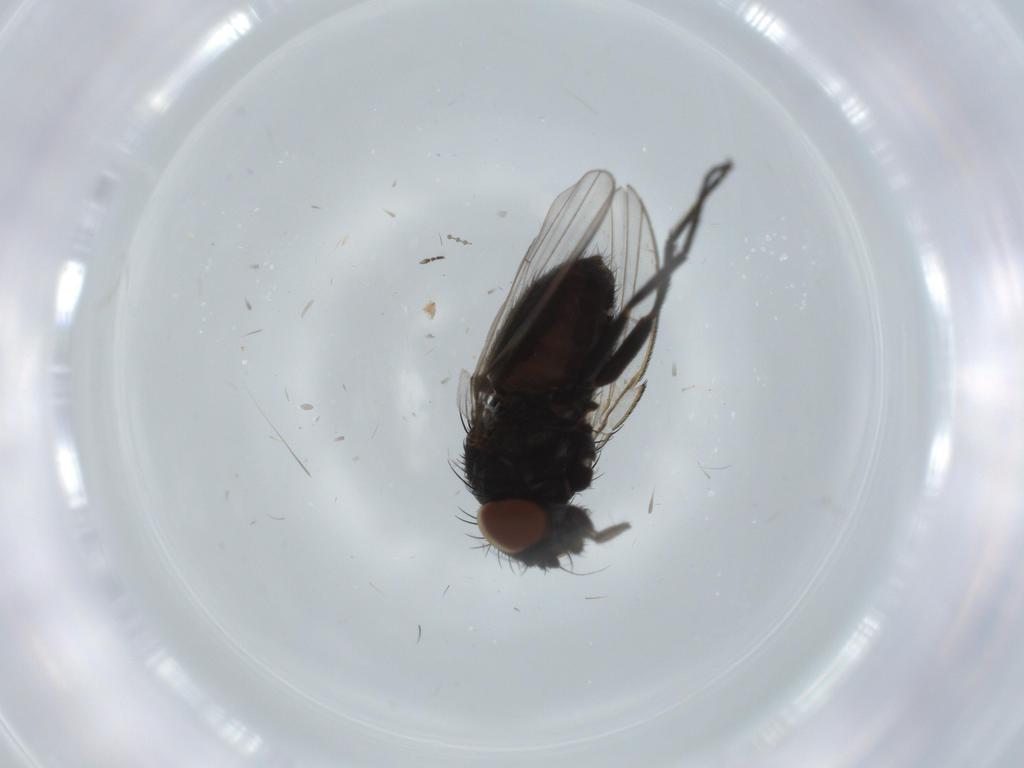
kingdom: Animalia
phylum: Arthropoda
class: Insecta
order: Diptera
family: Milichiidae
